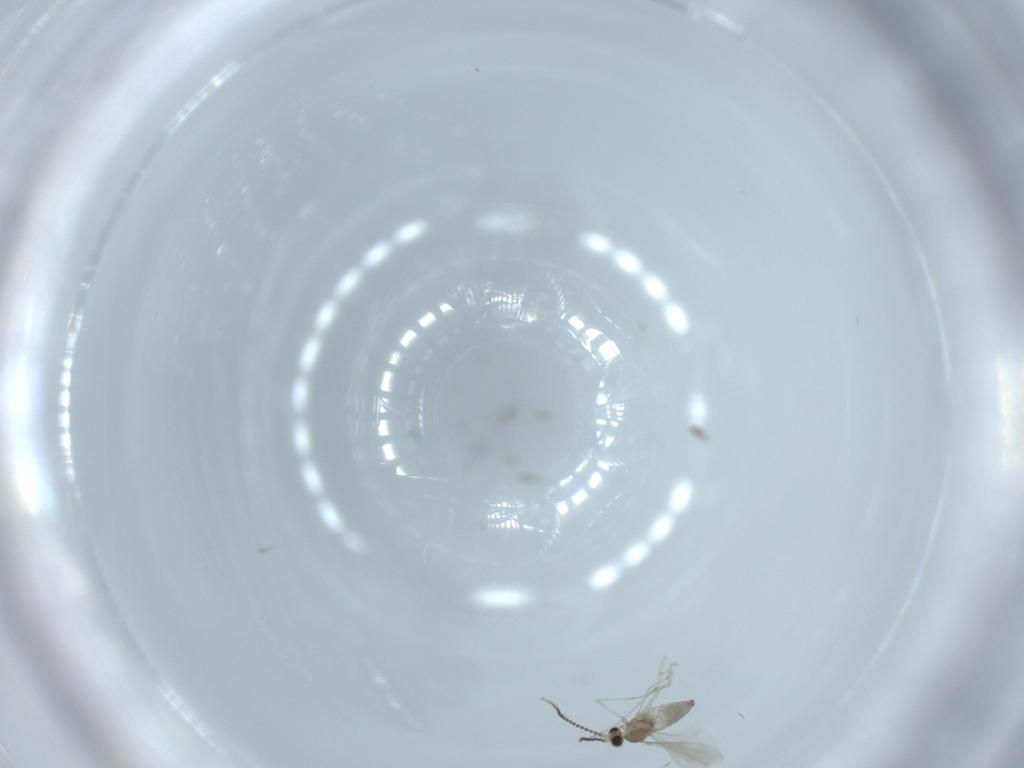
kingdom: Animalia
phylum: Arthropoda
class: Insecta
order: Diptera
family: Cecidomyiidae
